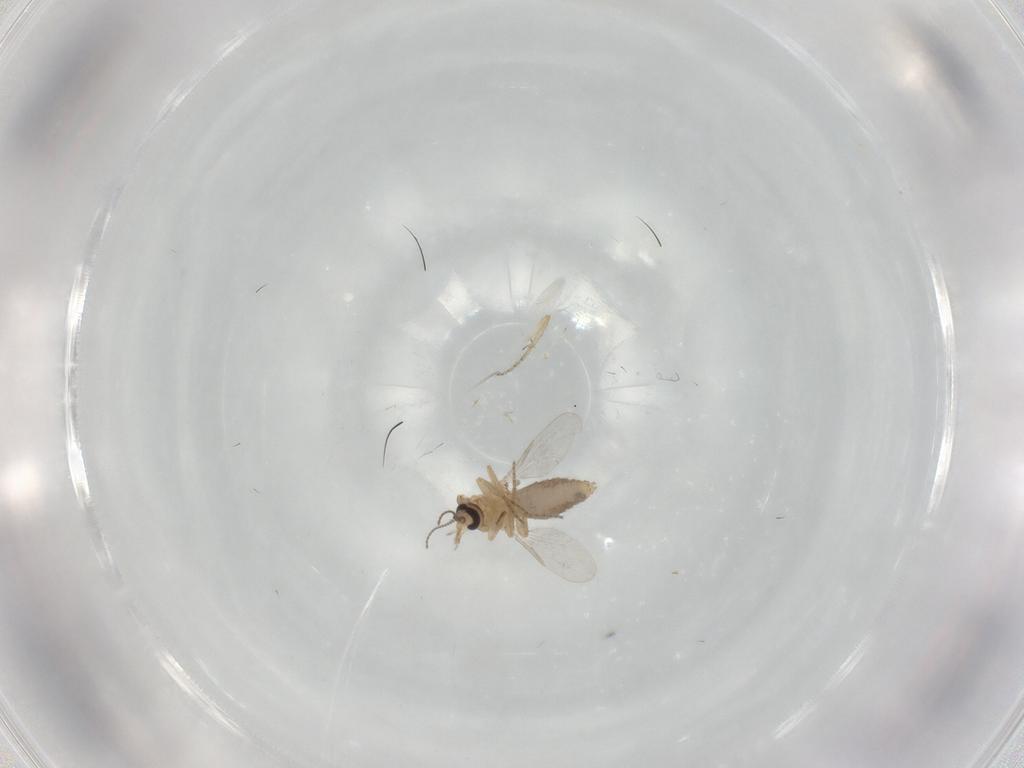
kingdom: Animalia
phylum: Arthropoda
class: Insecta
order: Diptera
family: Ceratopogonidae
